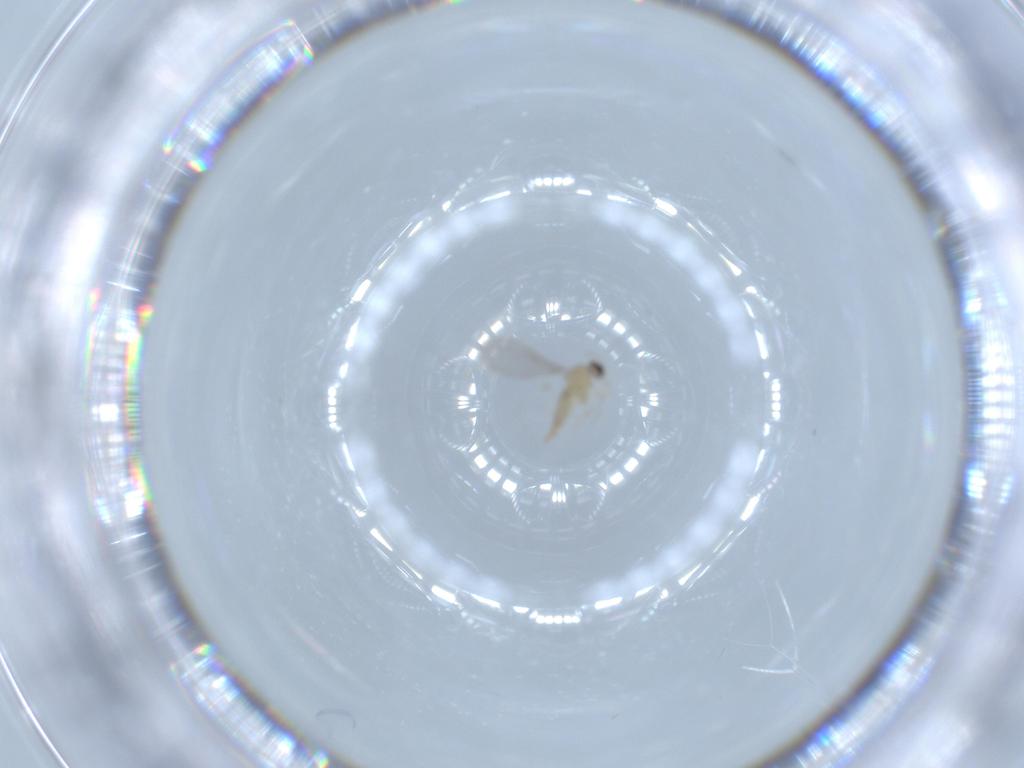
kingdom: Animalia
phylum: Arthropoda
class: Insecta
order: Diptera
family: Cecidomyiidae
